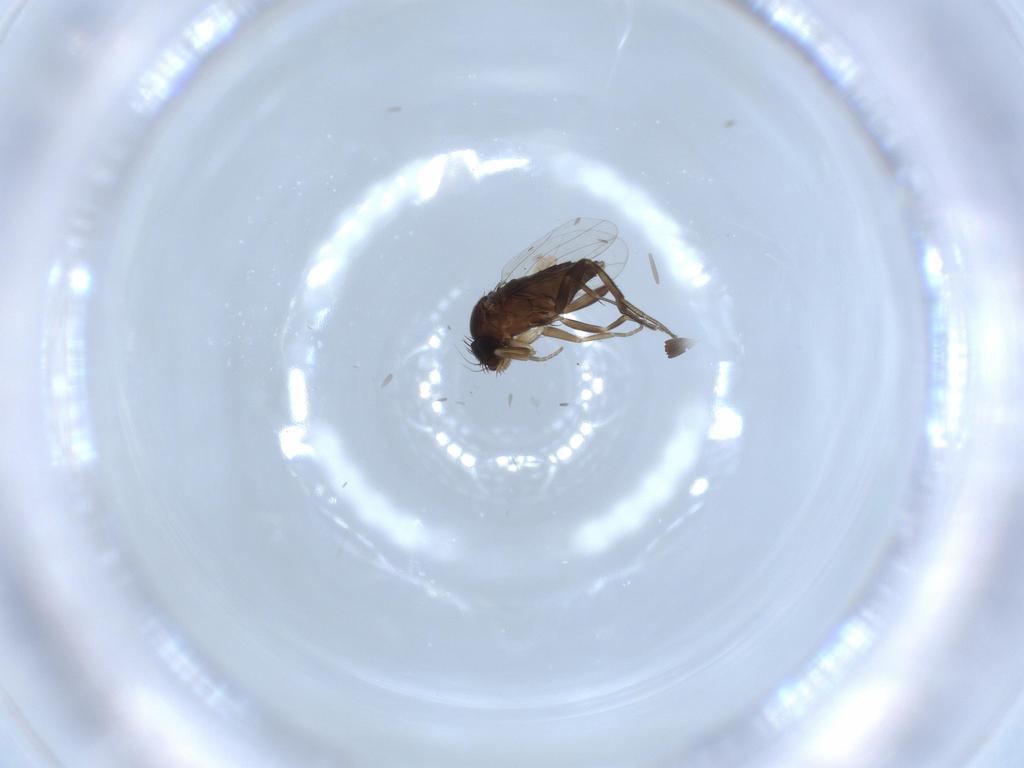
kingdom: Animalia
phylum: Arthropoda
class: Insecta
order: Diptera
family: Phoridae
